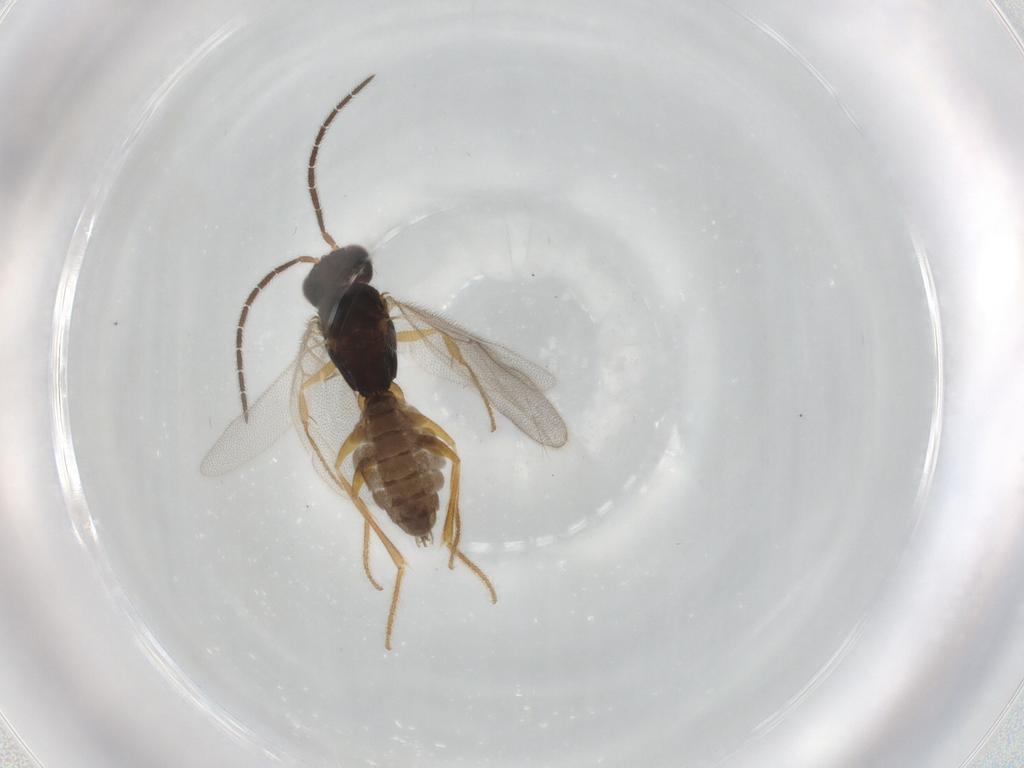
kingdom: Animalia
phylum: Arthropoda
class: Insecta
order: Hymenoptera
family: Dryinidae
